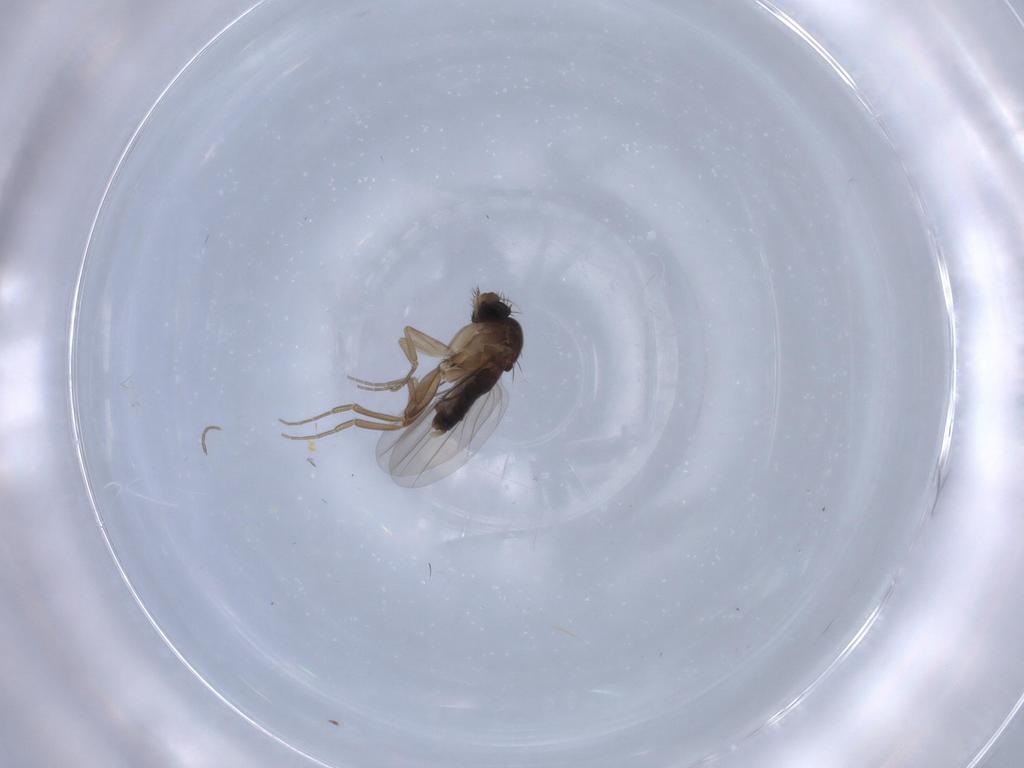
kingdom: Animalia
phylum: Arthropoda
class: Insecta
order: Diptera
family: Phoridae
